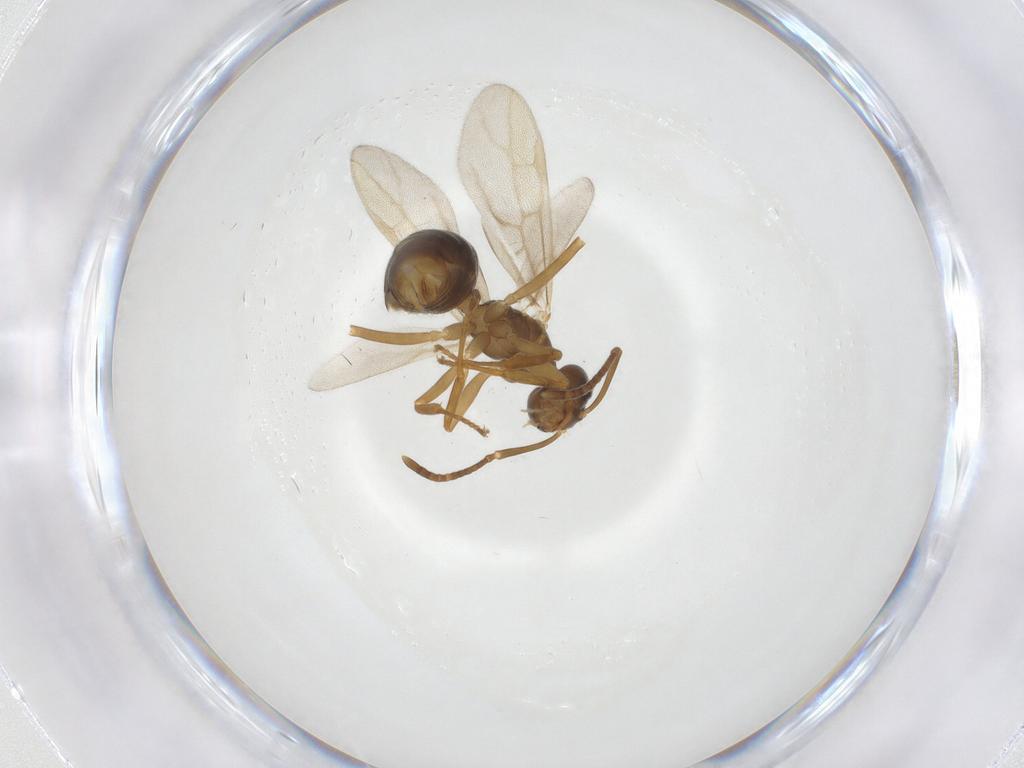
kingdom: Animalia
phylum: Arthropoda
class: Insecta
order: Hymenoptera
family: Formicidae
